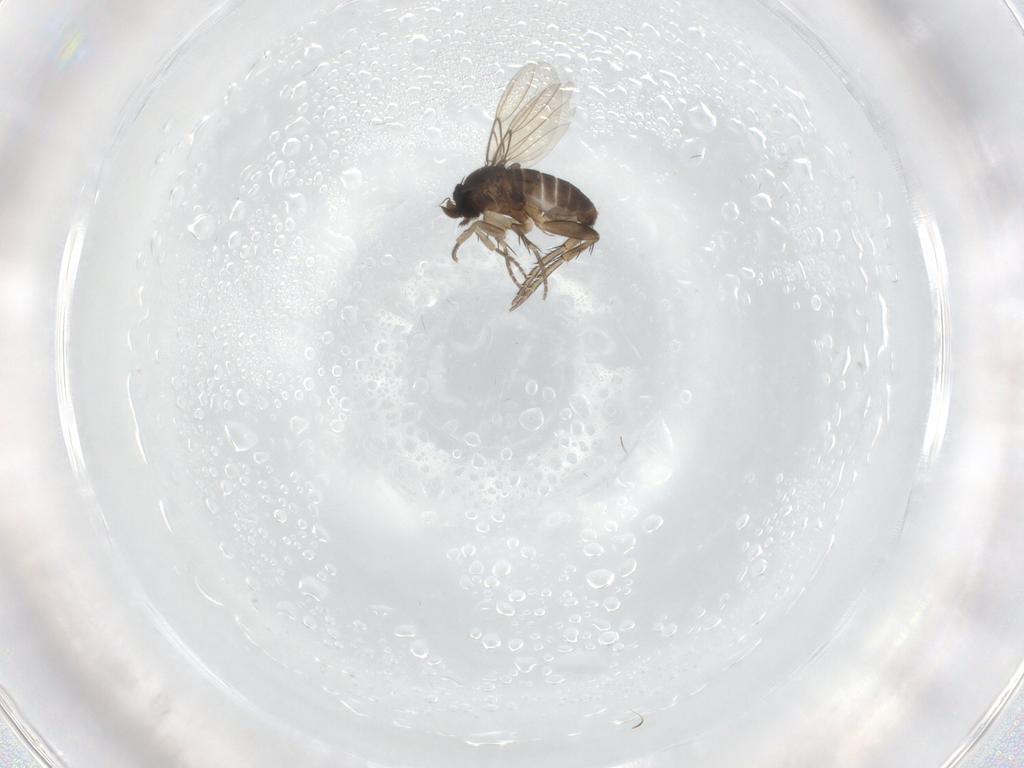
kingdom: Animalia
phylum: Arthropoda
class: Insecta
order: Diptera
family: Phoridae
